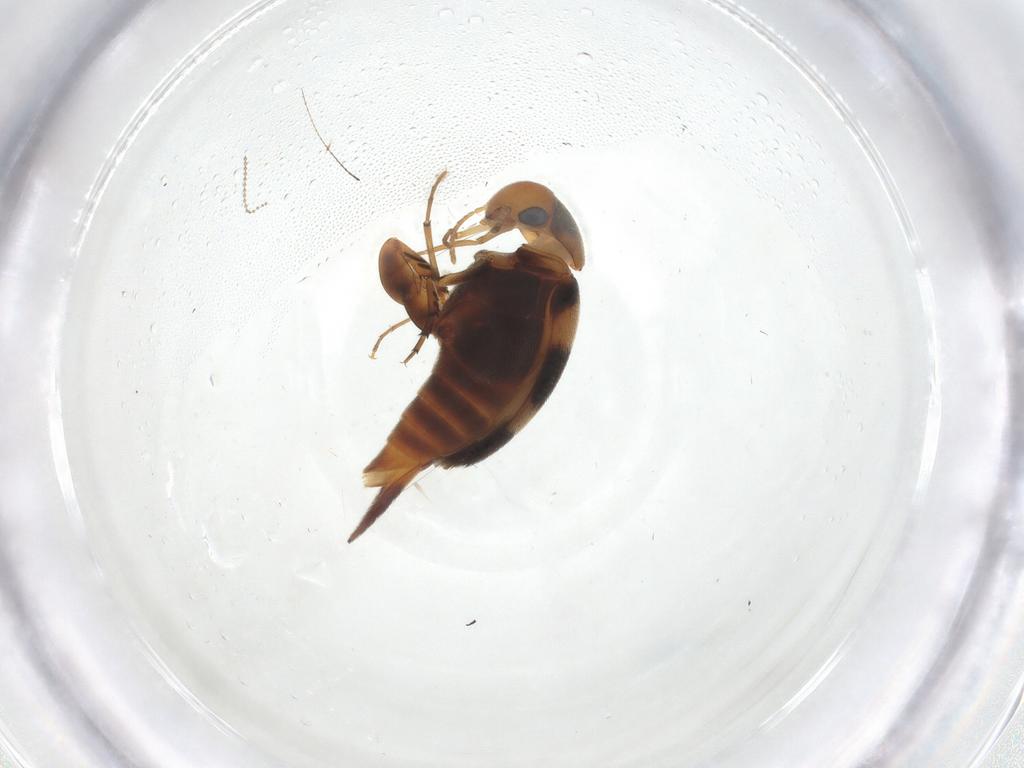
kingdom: Animalia
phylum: Arthropoda
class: Insecta
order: Coleoptera
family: Mordellidae
